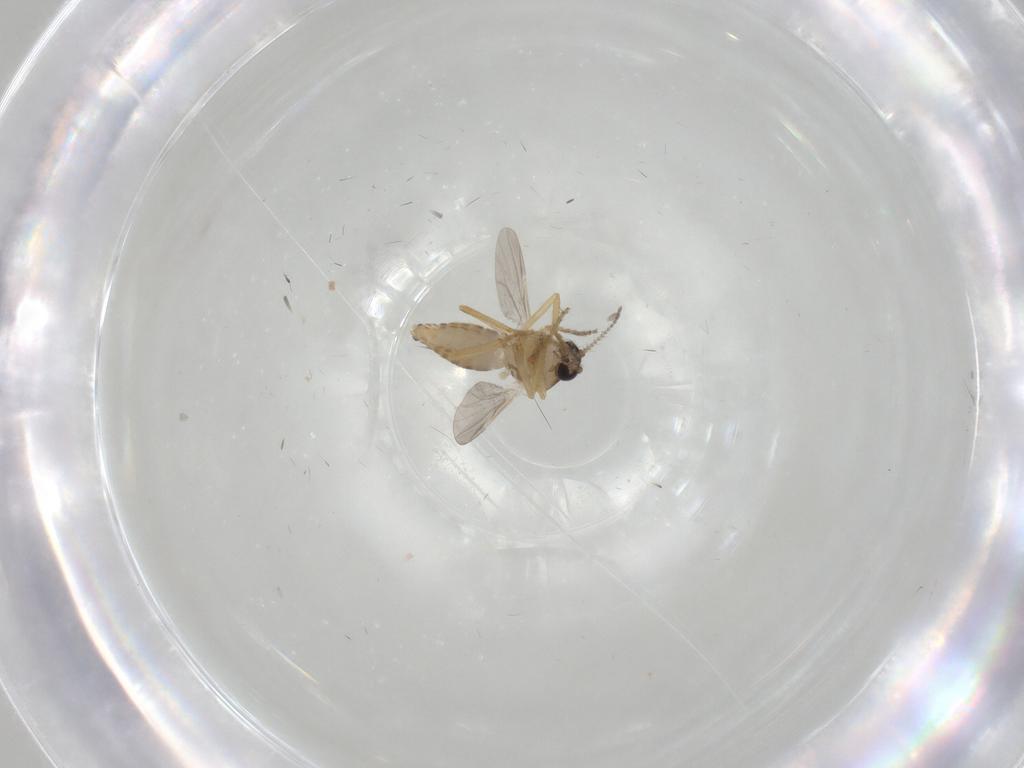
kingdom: Animalia
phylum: Arthropoda
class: Insecta
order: Diptera
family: Ceratopogonidae
